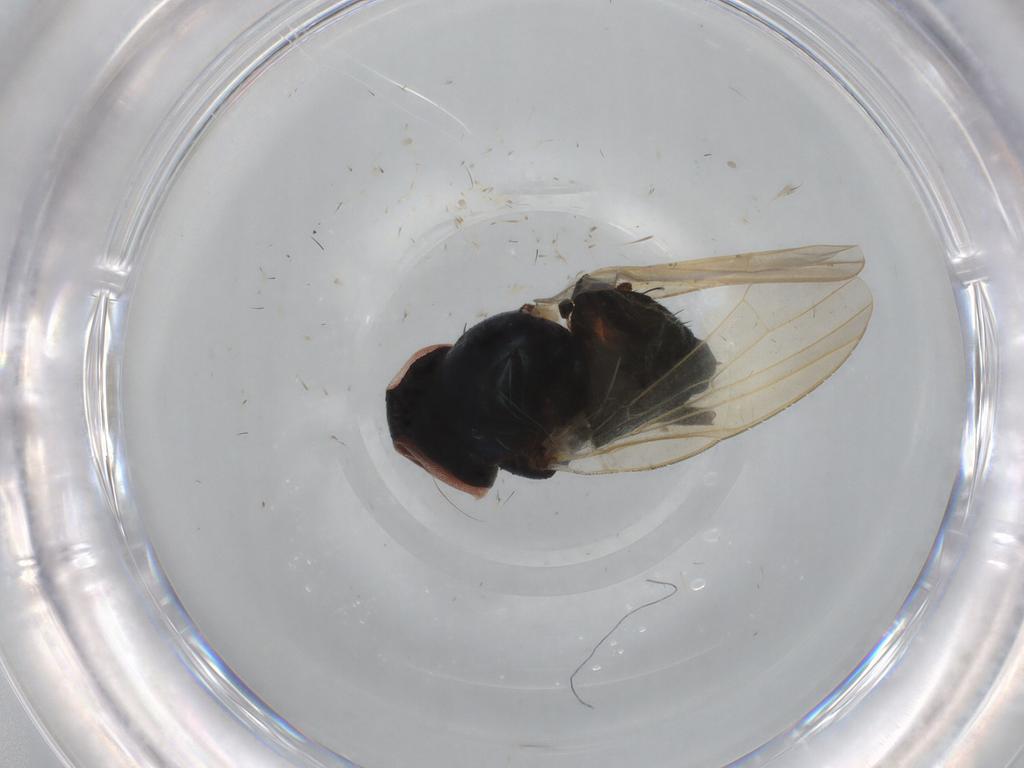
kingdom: Animalia
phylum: Arthropoda
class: Insecta
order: Diptera
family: Lonchaeidae
